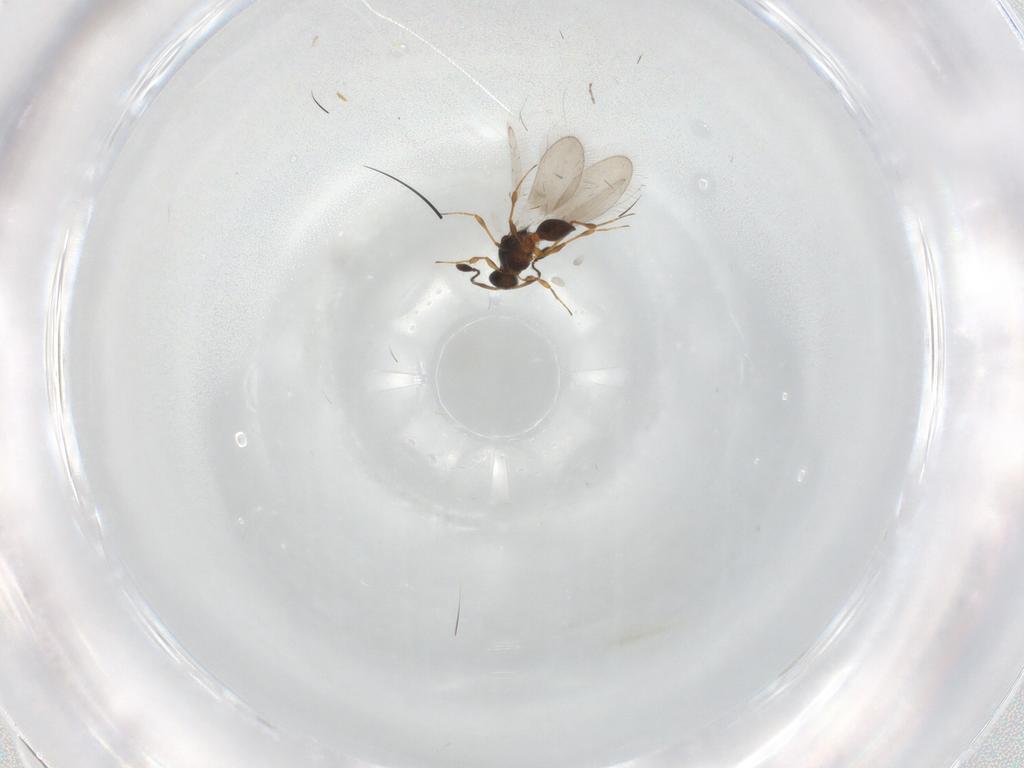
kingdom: Animalia
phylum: Arthropoda
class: Insecta
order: Hymenoptera
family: Platygastridae
